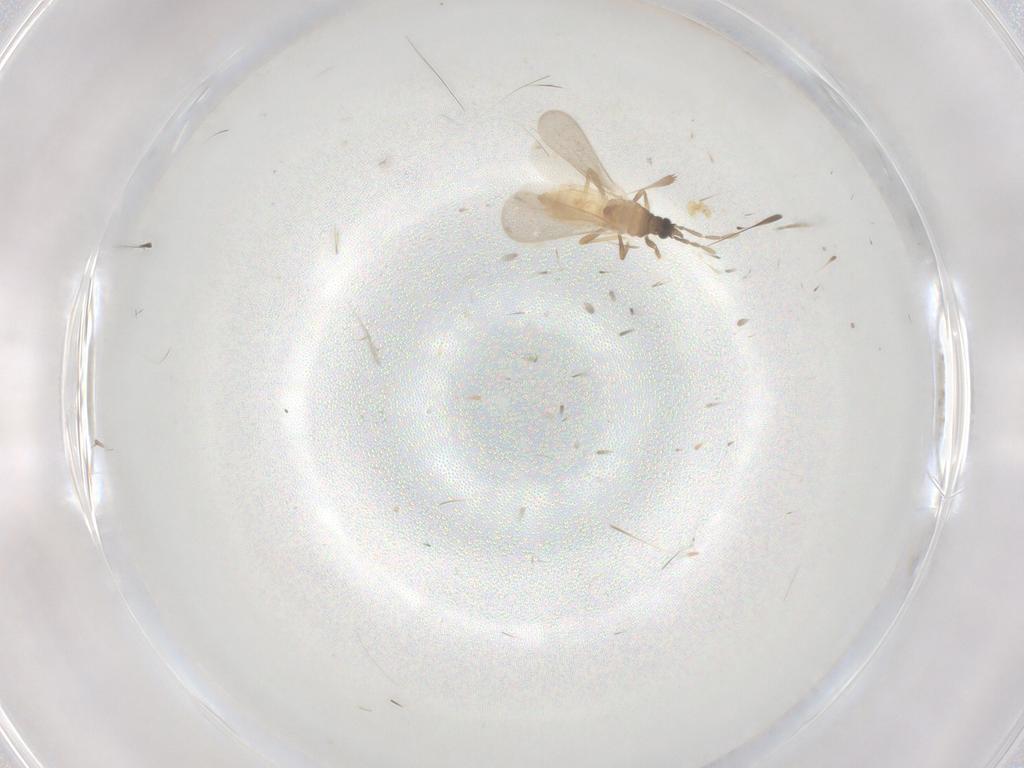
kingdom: Animalia
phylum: Arthropoda
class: Insecta
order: Hemiptera
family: Enicocephalidae
